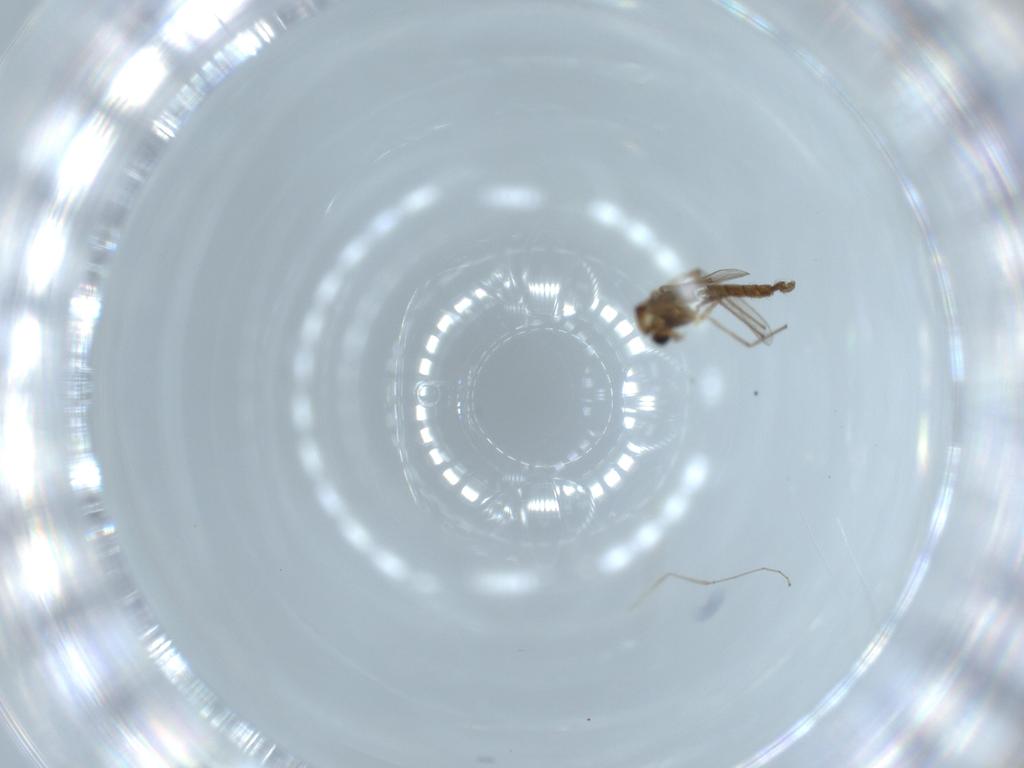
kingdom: Animalia
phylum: Arthropoda
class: Insecta
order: Diptera
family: Chironomidae
